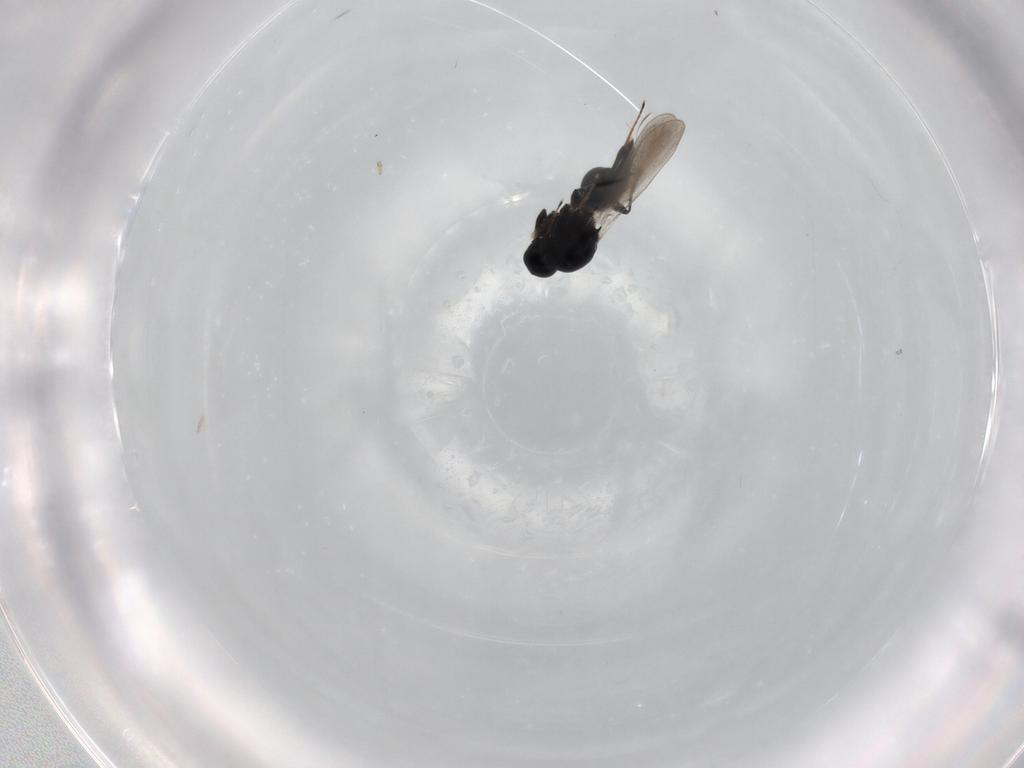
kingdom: Animalia
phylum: Arthropoda
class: Insecta
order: Hymenoptera
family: Platygastridae
